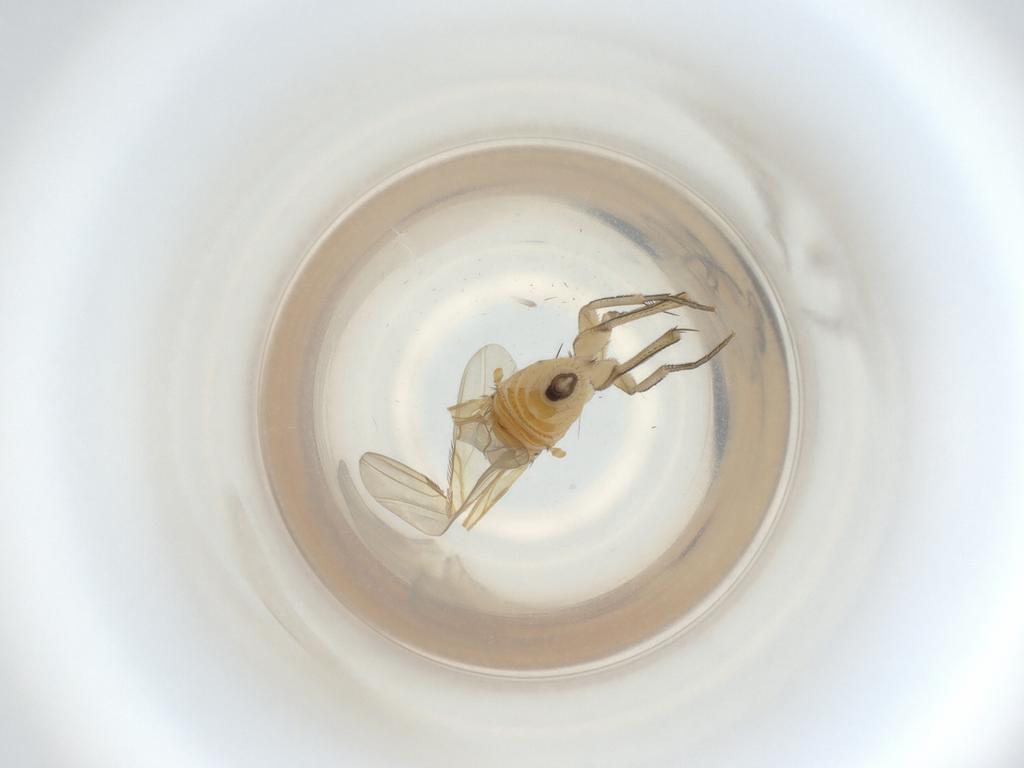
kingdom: Animalia
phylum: Arthropoda
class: Insecta
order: Diptera
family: Phoridae
